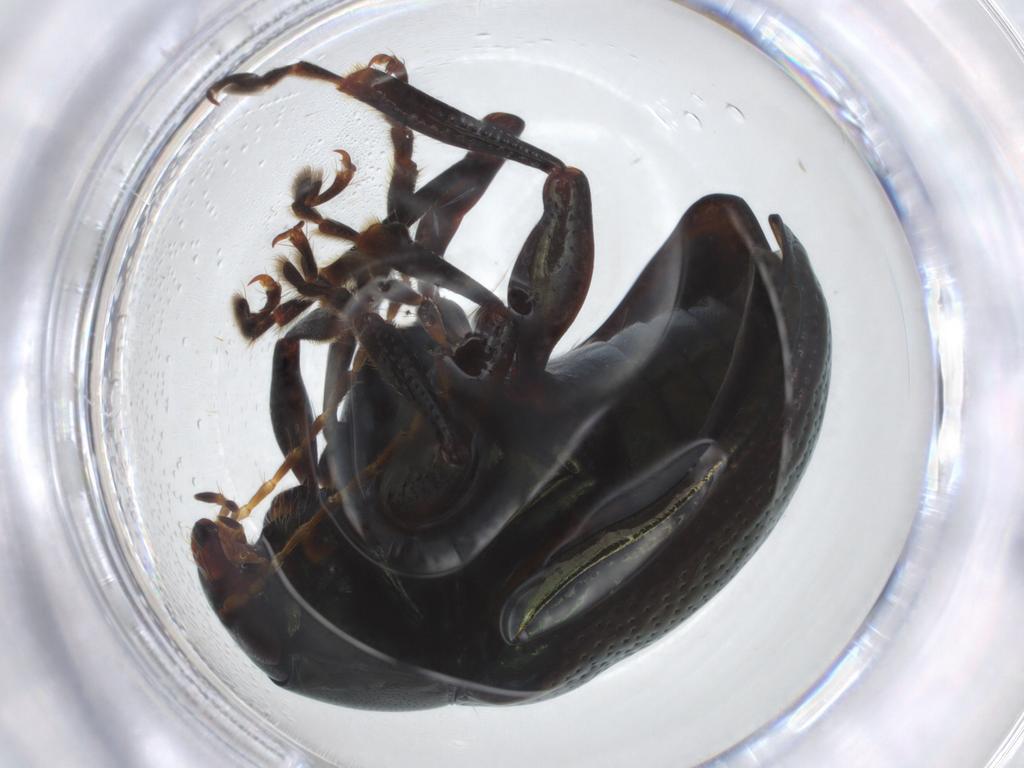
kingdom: Animalia
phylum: Arthropoda
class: Insecta
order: Coleoptera
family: Chrysomelidae
